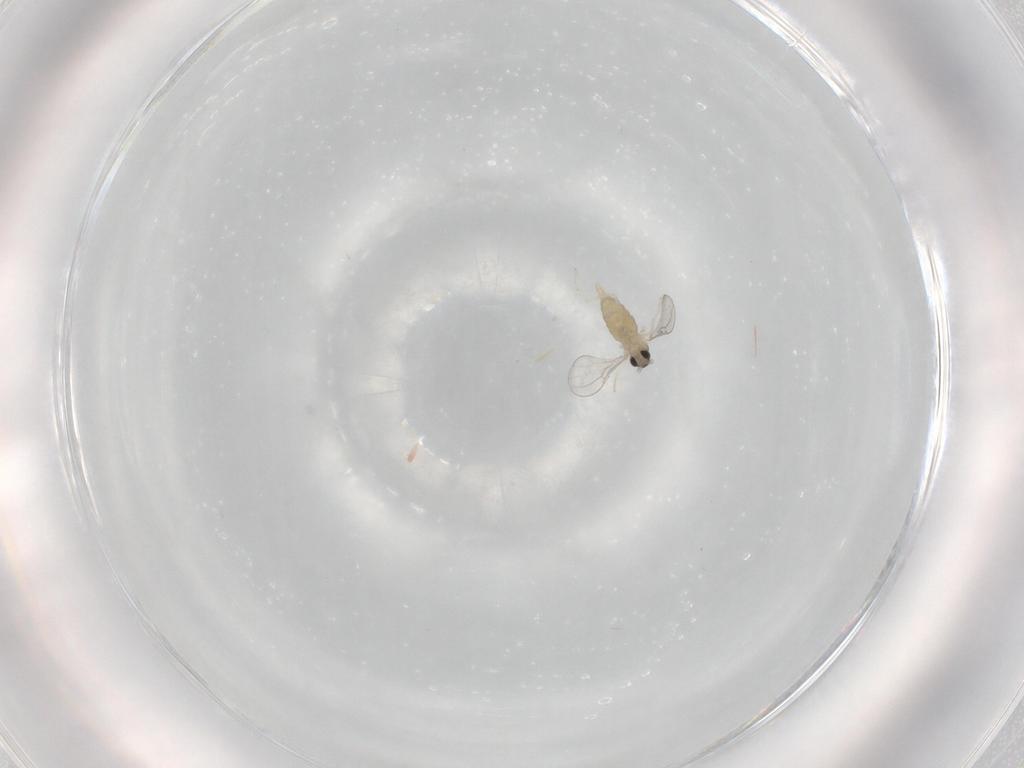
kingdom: Animalia
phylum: Arthropoda
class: Insecta
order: Diptera
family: Cecidomyiidae
